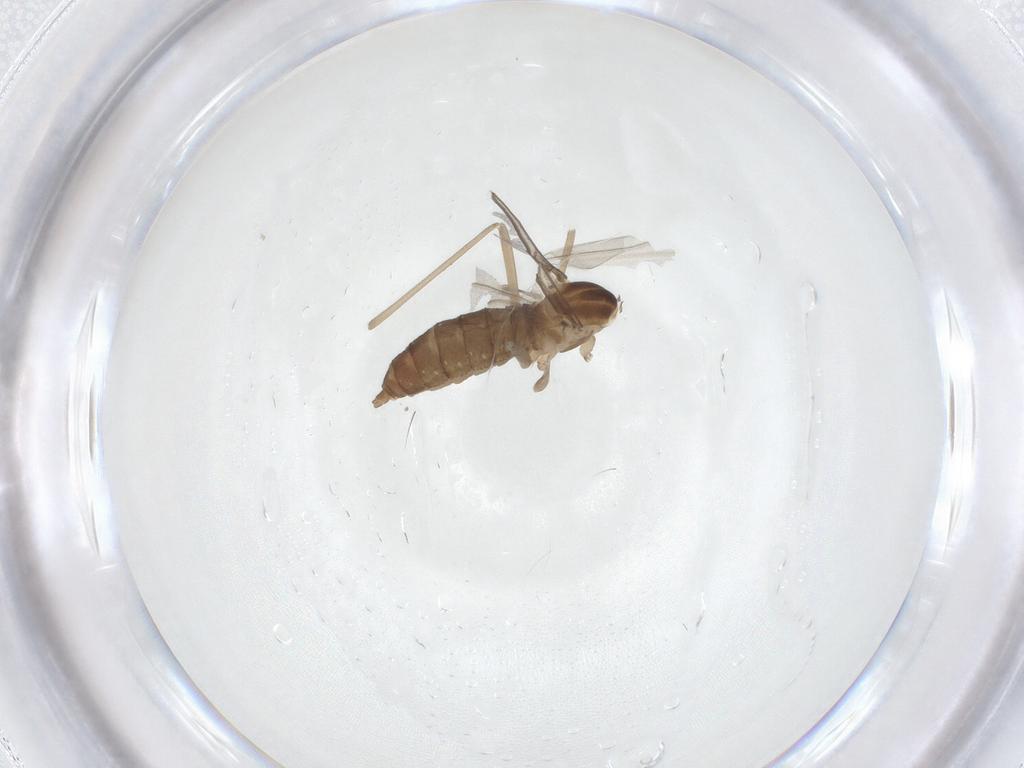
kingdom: Animalia
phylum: Arthropoda
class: Insecta
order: Diptera
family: Cecidomyiidae
